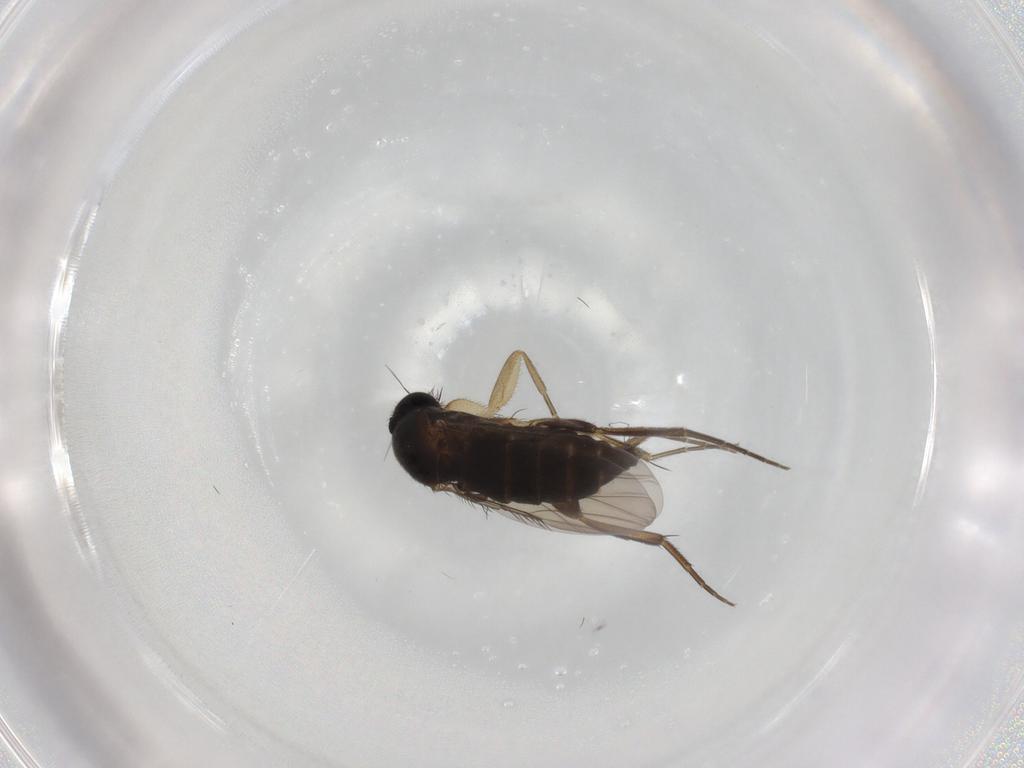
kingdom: Animalia
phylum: Arthropoda
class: Insecta
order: Diptera
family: Phoridae
